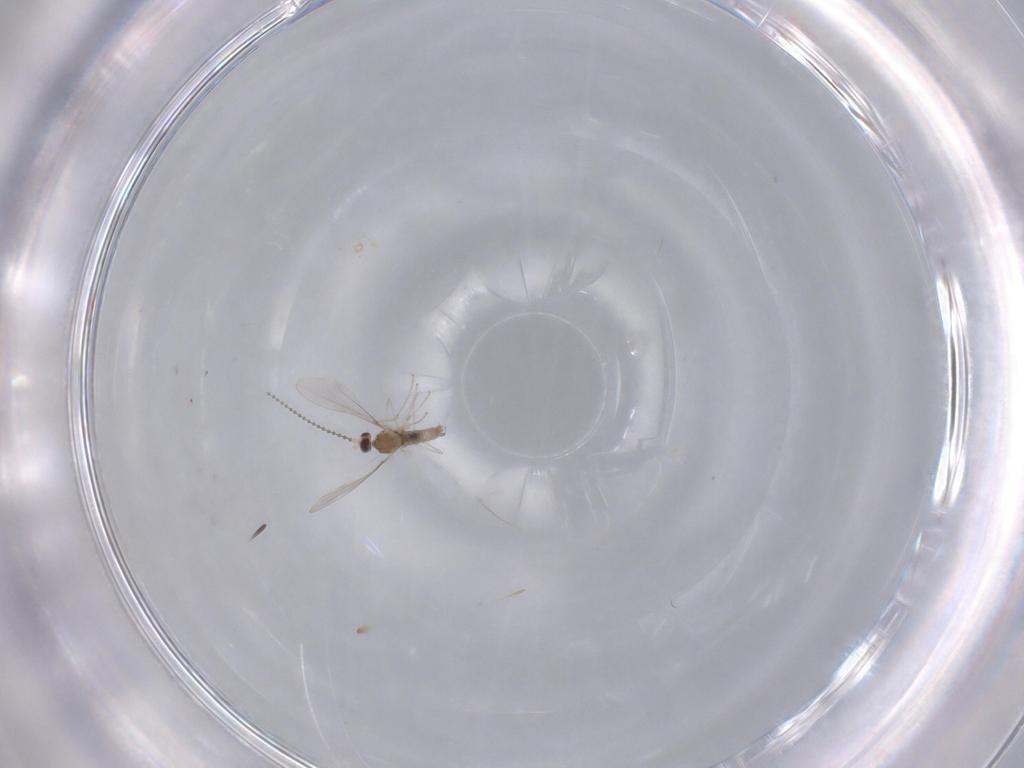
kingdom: Animalia
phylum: Arthropoda
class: Insecta
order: Diptera
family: Cecidomyiidae
